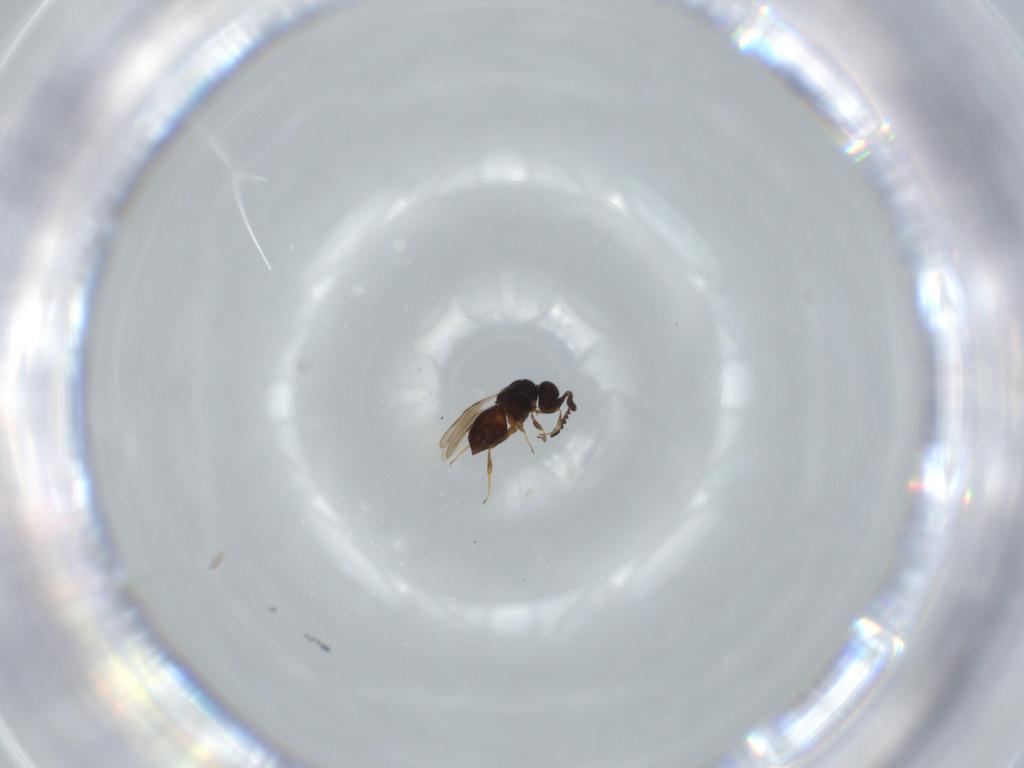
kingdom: Animalia
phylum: Arthropoda
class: Insecta
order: Hymenoptera
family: Ceraphronidae
